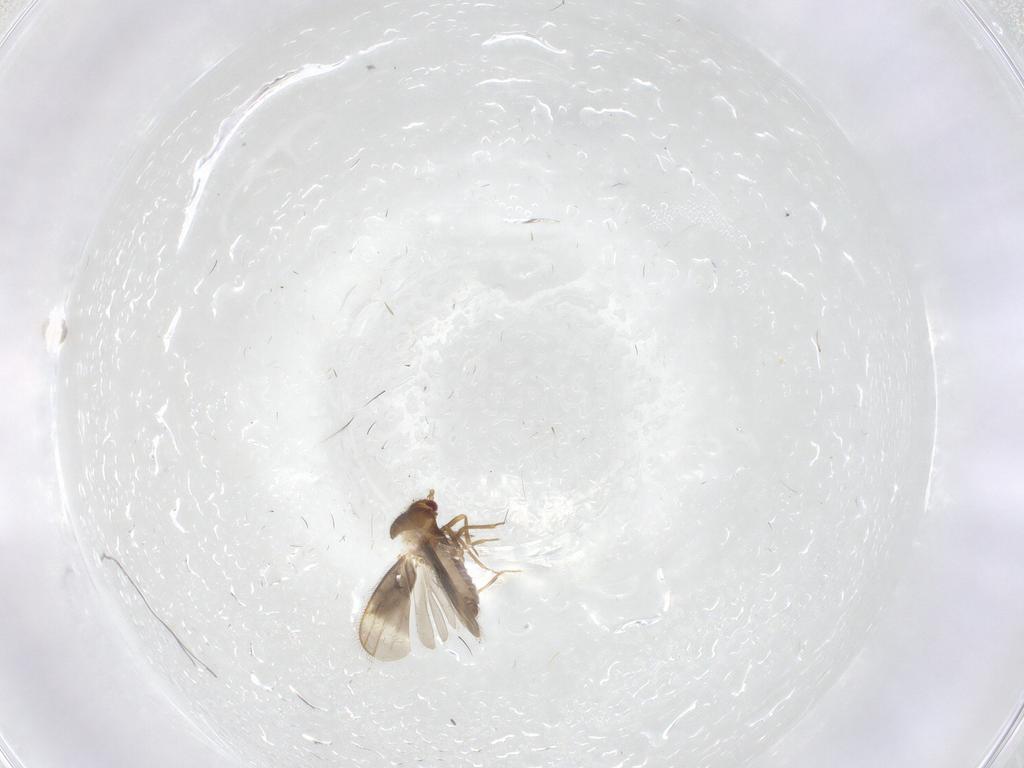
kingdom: Animalia
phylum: Arthropoda
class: Insecta
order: Hemiptera
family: Schizopteridae
